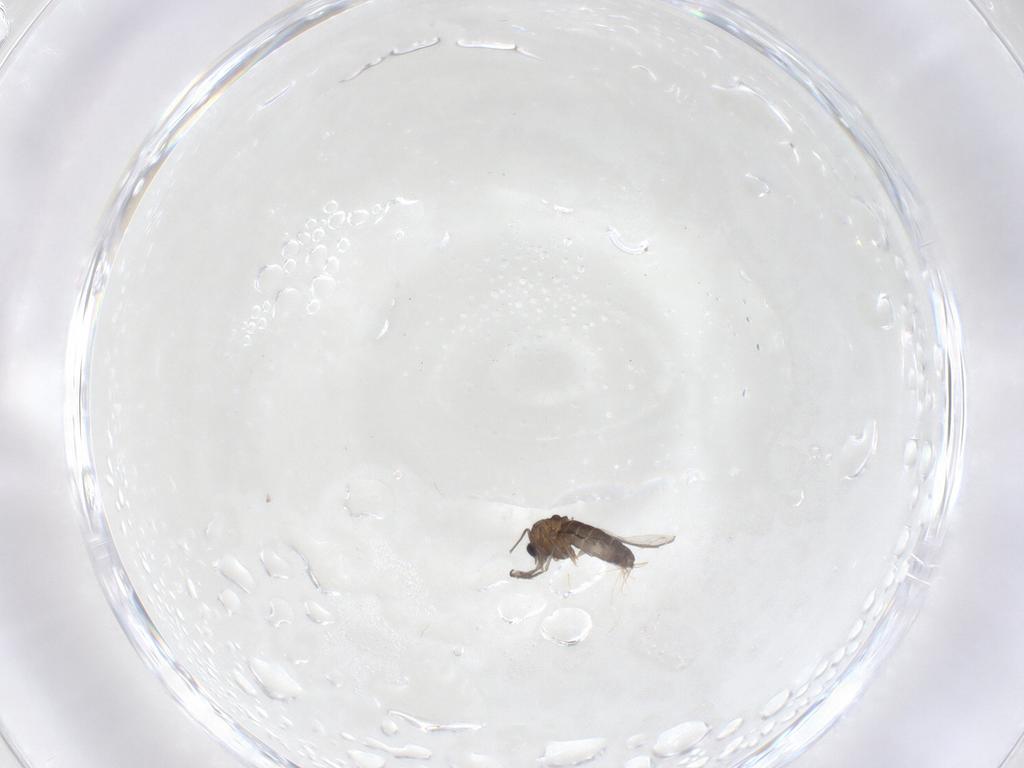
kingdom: Animalia
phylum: Arthropoda
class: Insecta
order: Diptera
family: Chironomidae
